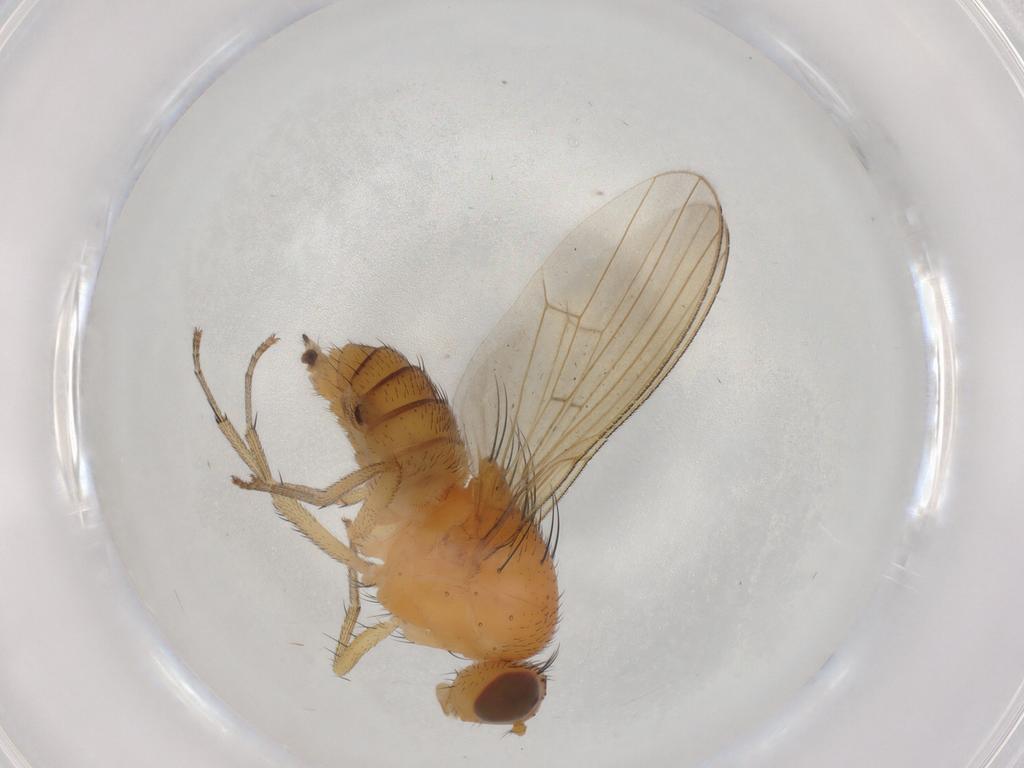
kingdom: Animalia
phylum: Arthropoda
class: Insecta
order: Diptera
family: Lauxaniidae
